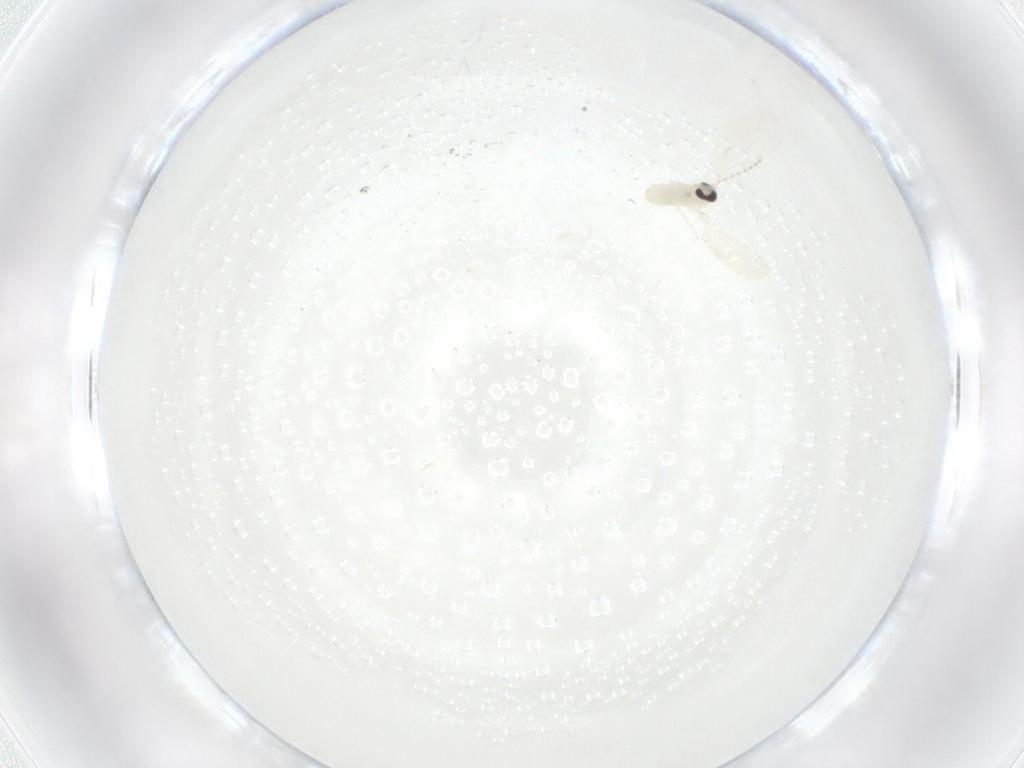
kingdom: Animalia
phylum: Arthropoda
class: Insecta
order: Diptera
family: Cecidomyiidae
